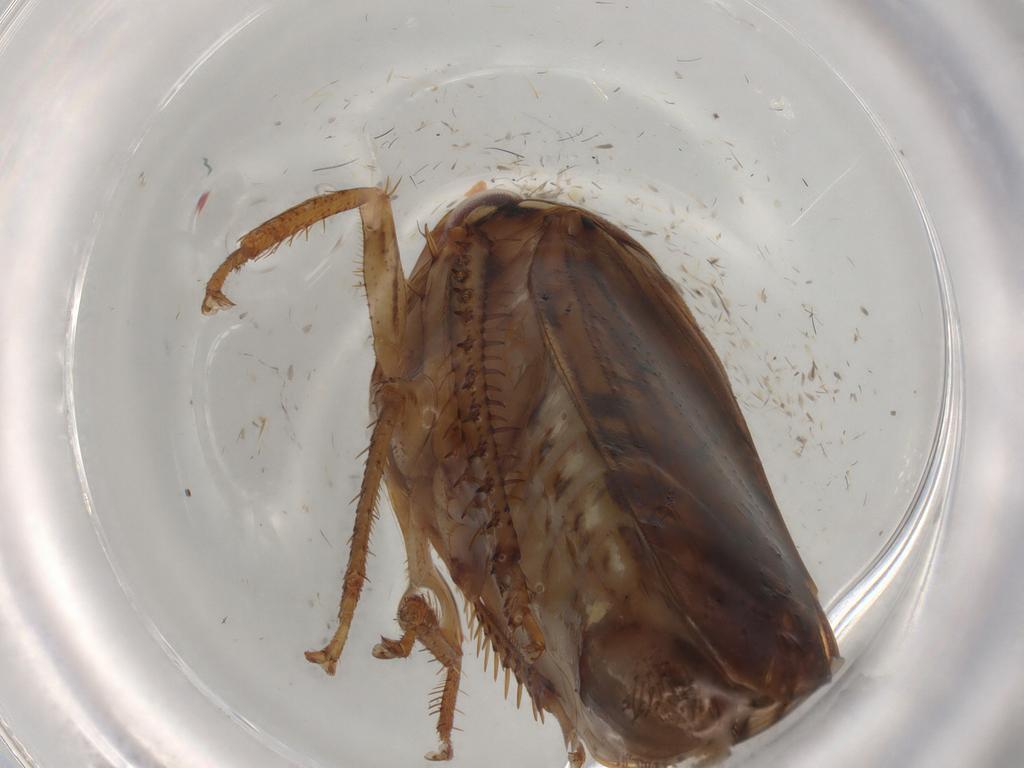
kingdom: Animalia
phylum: Arthropoda
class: Insecta
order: Hemiptera
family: Cicadellidae
